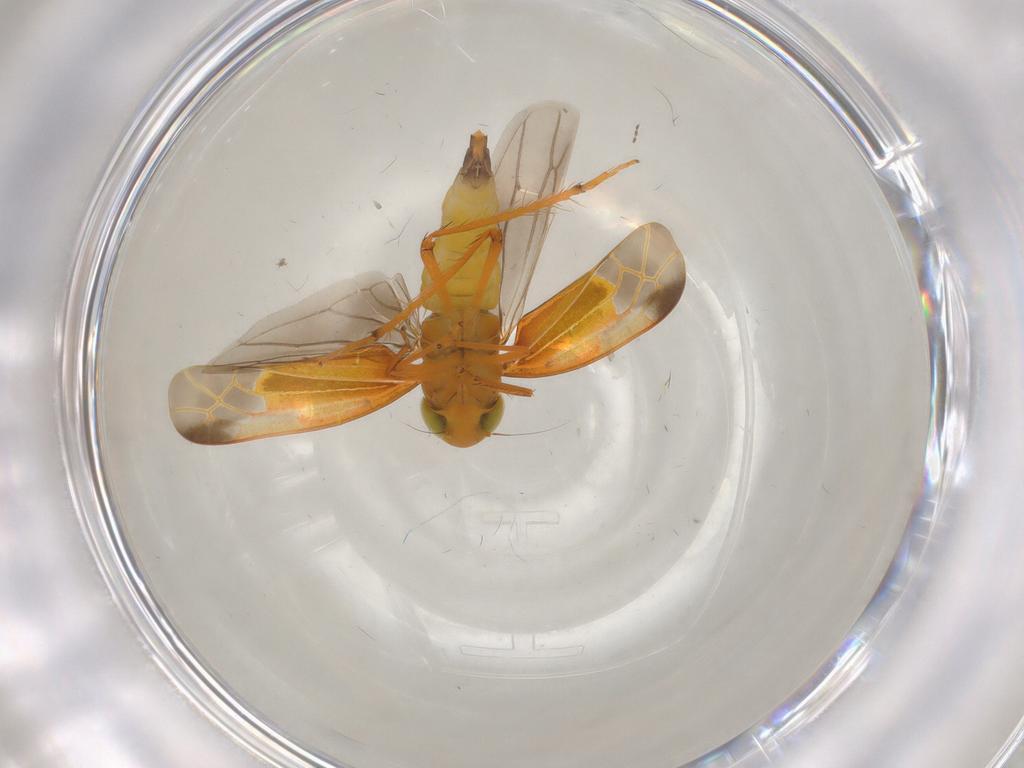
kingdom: Animalia
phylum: Arthropoda
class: Insecta
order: Hemiptera
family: Cicadellidae
